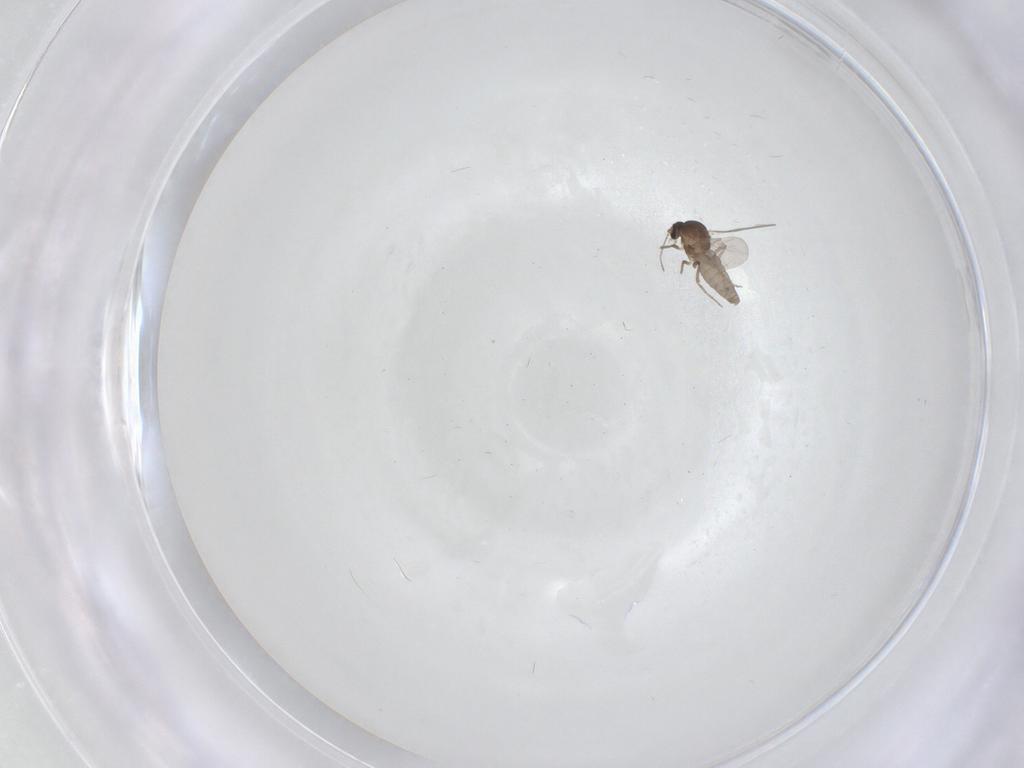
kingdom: Animalia
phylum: Arthropoda
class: Insecta
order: Diptera
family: Ceratopogonidae
